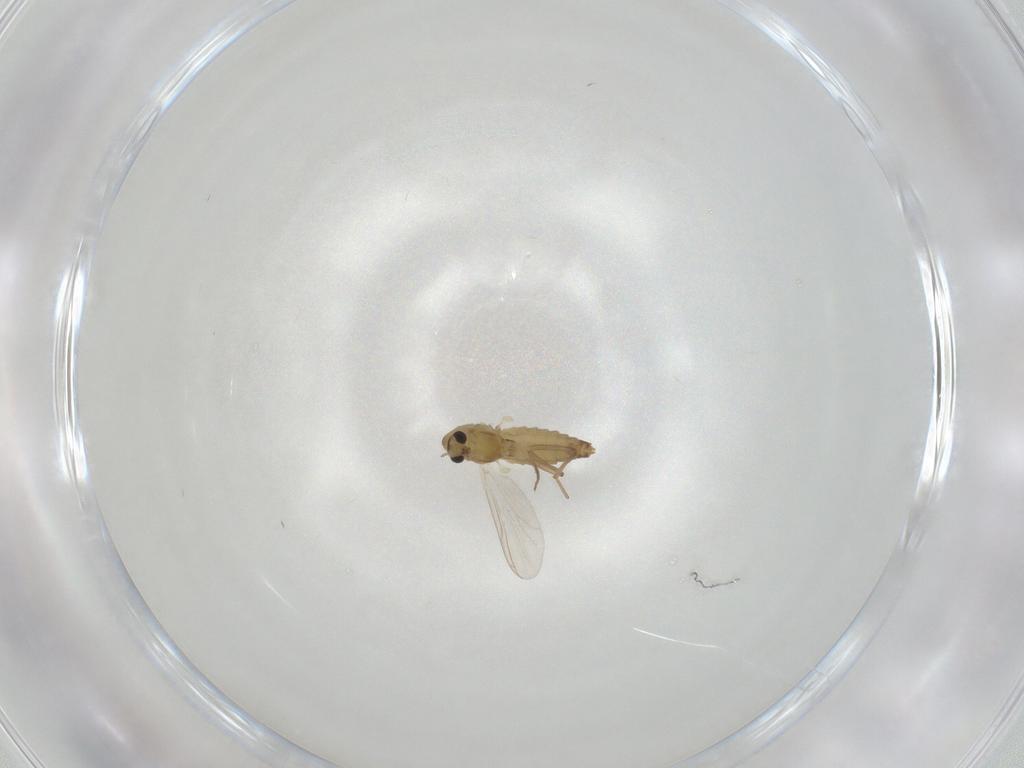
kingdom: Animalia
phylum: Arthropoda
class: Insecta
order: Diptera
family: Chironomidae
